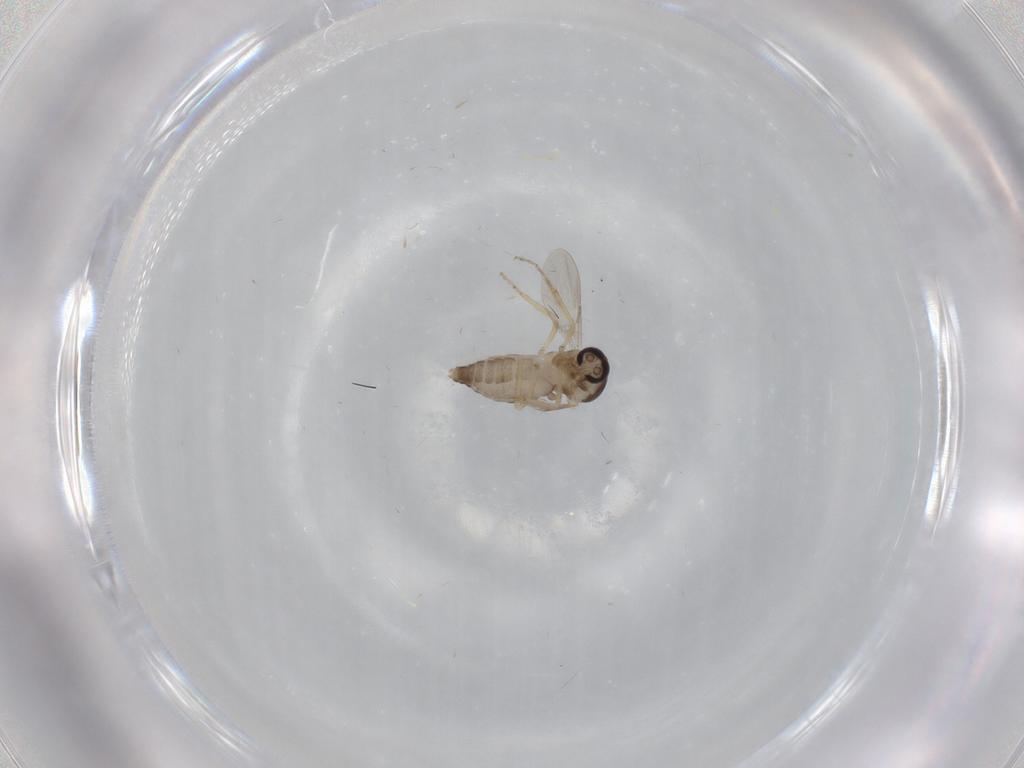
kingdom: Animalia
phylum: Arthropoda
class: Insecta
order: Diptera
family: Ceratopogonidae
